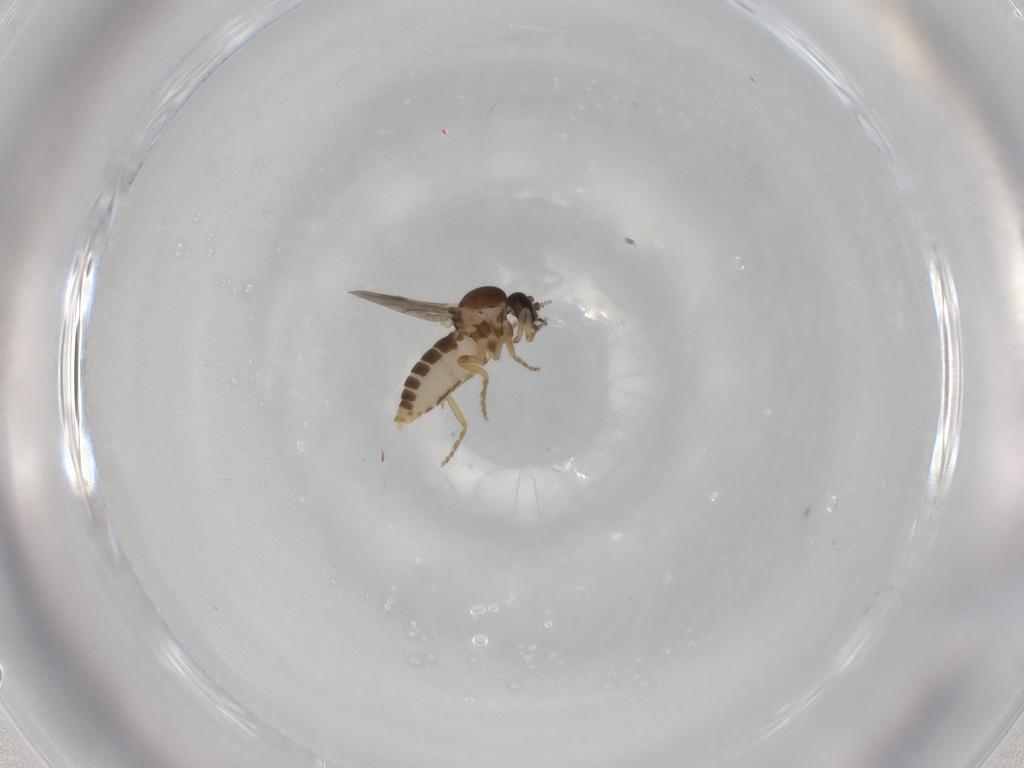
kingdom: Animalia
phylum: Arthropoda
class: Insecta
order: Diptera
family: Ceratopogonidae
